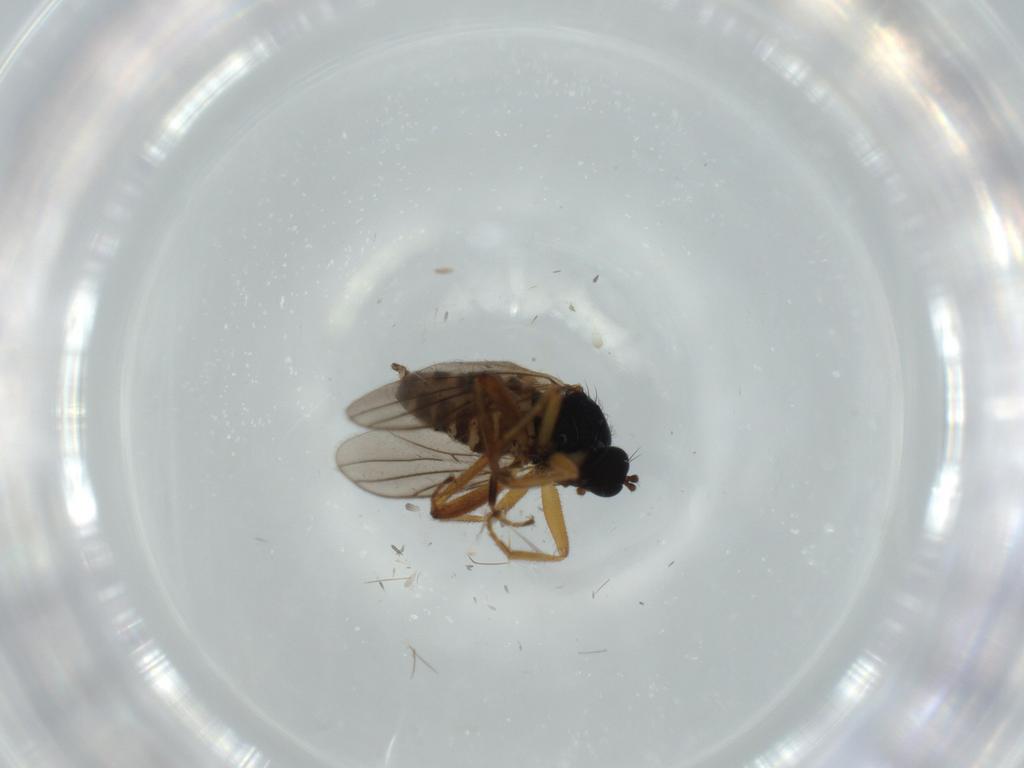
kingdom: Animalia
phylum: Arthropoda
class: Insecta
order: Diptera
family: Hybotidae
